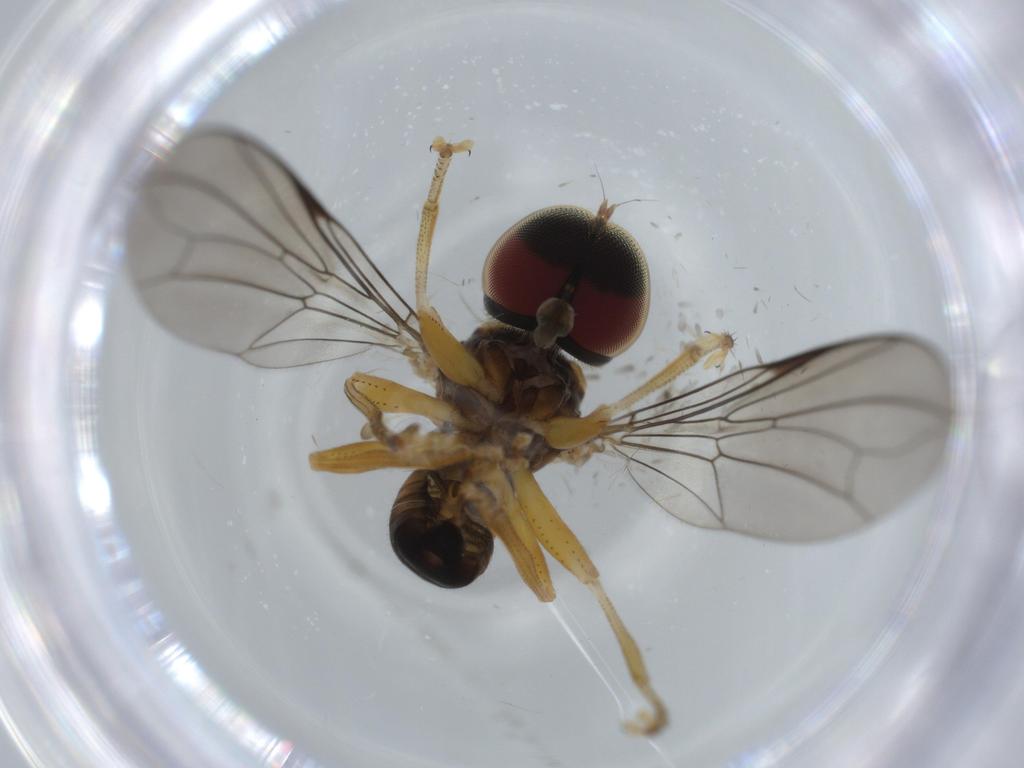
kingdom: Animalia
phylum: Arthropoda
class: Insecta
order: Diptera
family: Pipunculidae
